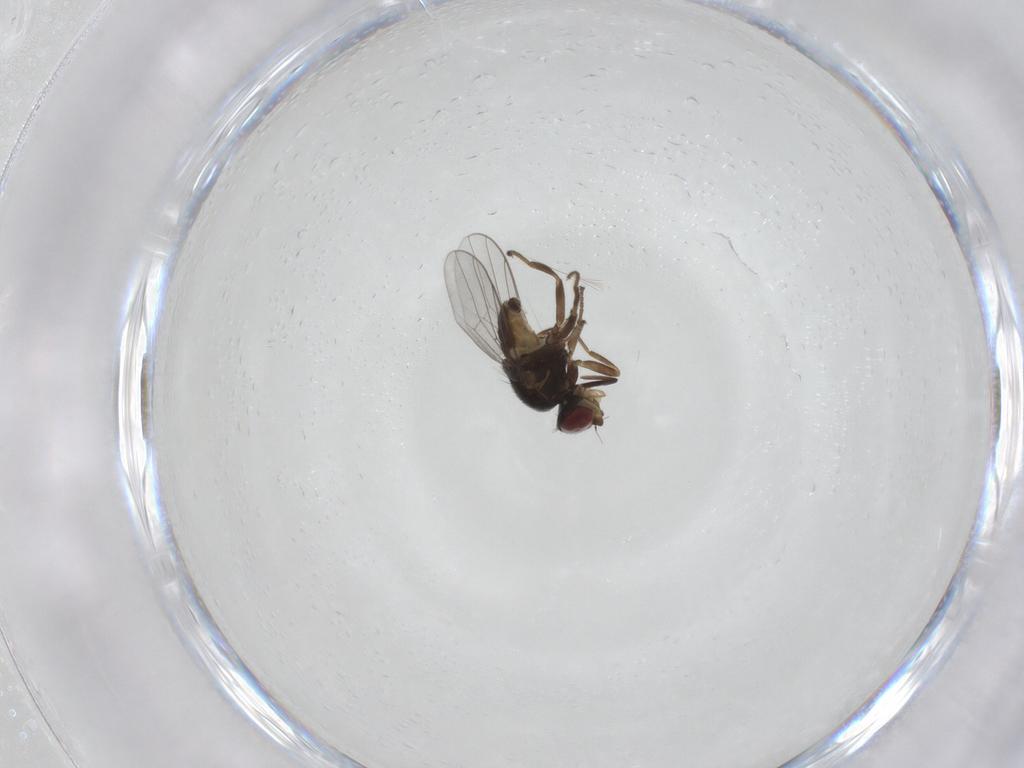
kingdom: Animalia
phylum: Arthropoda
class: Insecta
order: Diptera
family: Chloropidae
